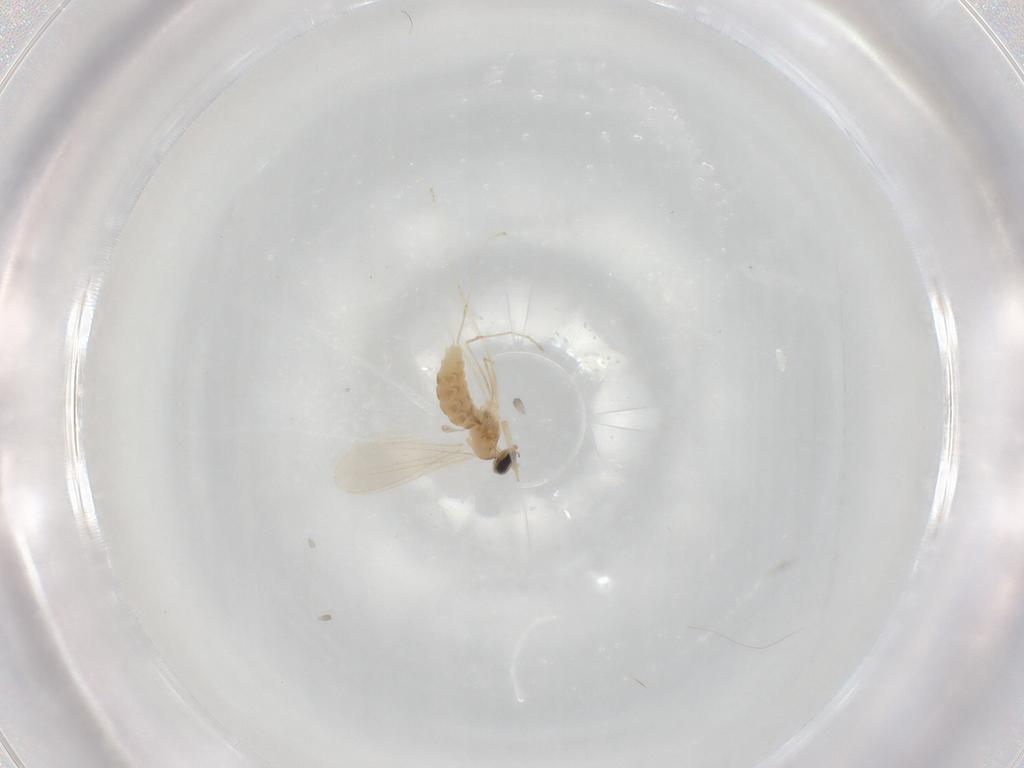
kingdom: Animalia
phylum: Arthropoda
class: Insecta
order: Diptera
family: Cecidomyiidae
